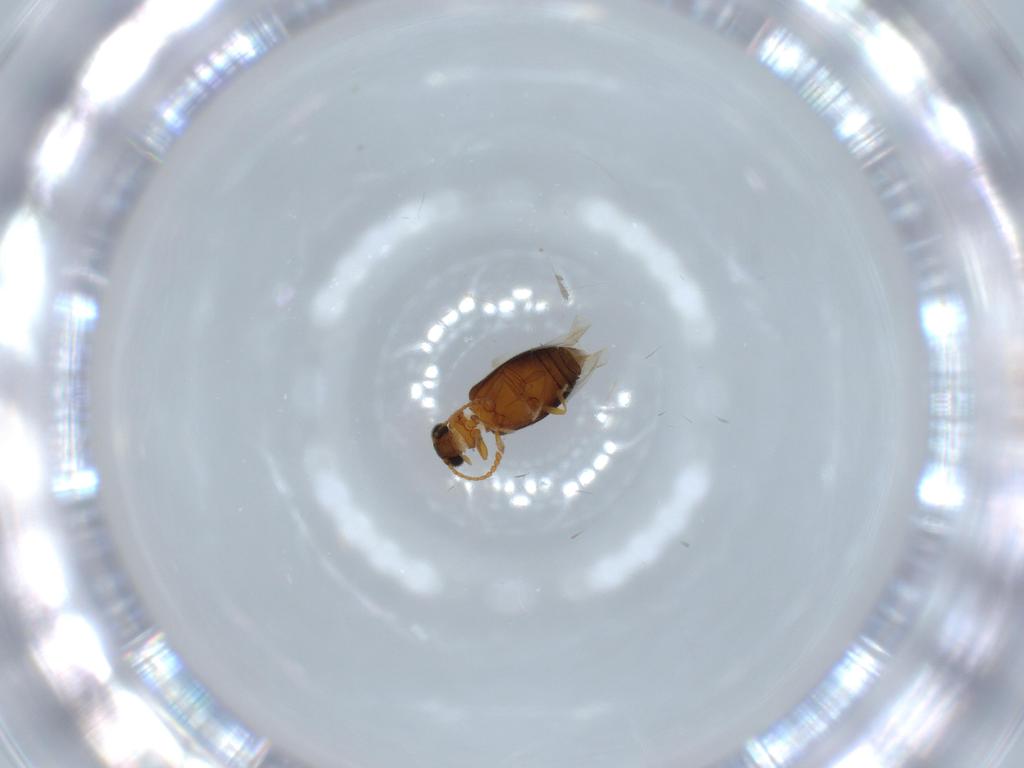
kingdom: Animalia
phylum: Arthropoda
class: Insecta
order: Coleoptera
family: Aderidae
